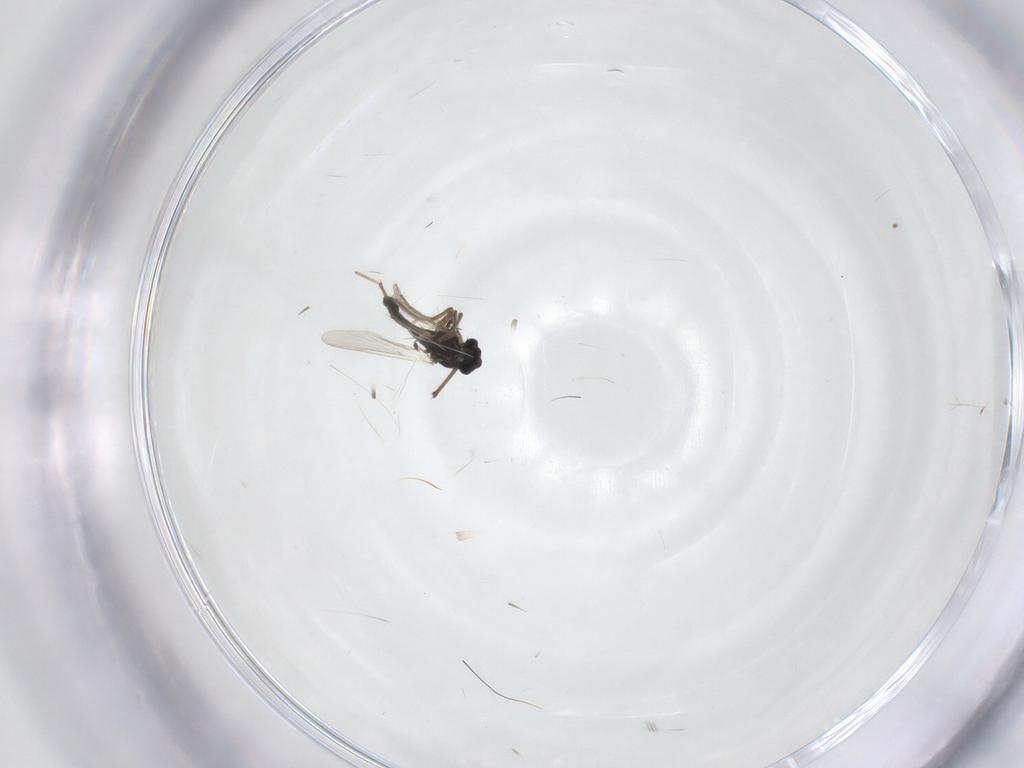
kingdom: Animalia
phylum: Arthropoda
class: Insecta
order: Diptera
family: Chironomidae
